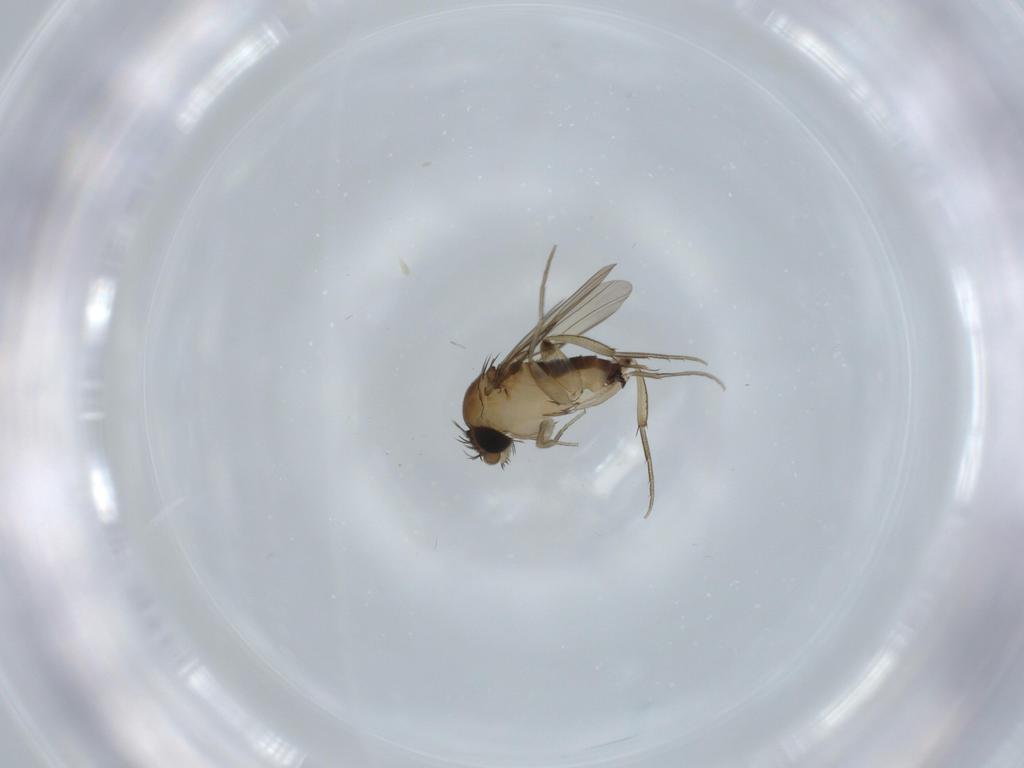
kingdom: Animalia
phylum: Arthropoda
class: Insecta
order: Diptera
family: Phoridae
